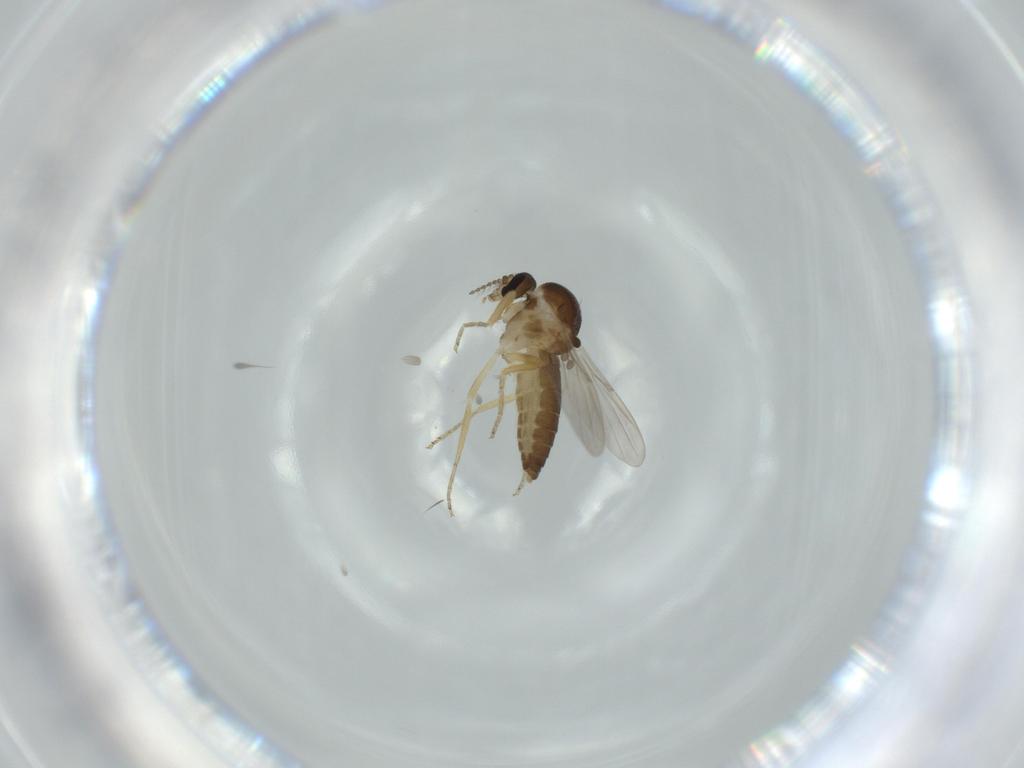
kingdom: Animalia
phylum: Arthropoda
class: Insecta
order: Diptera
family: Ceratopogonidae
